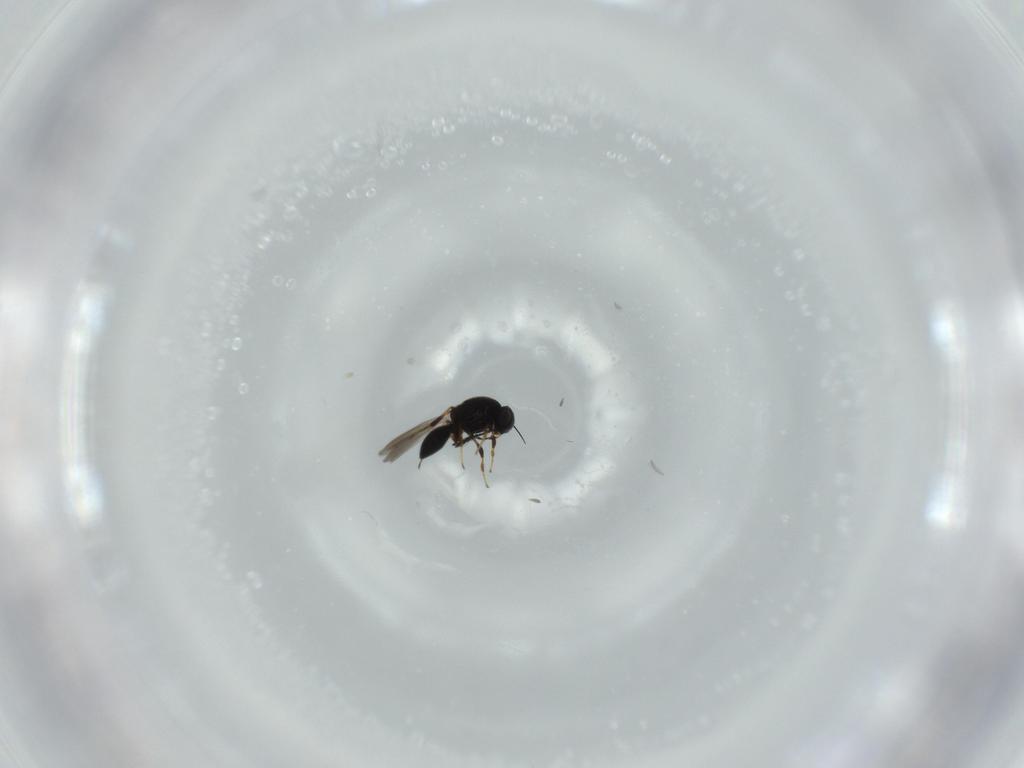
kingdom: Animalia
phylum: Arthropoda
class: Insecta
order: Hymenoptera
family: Platygastridae
